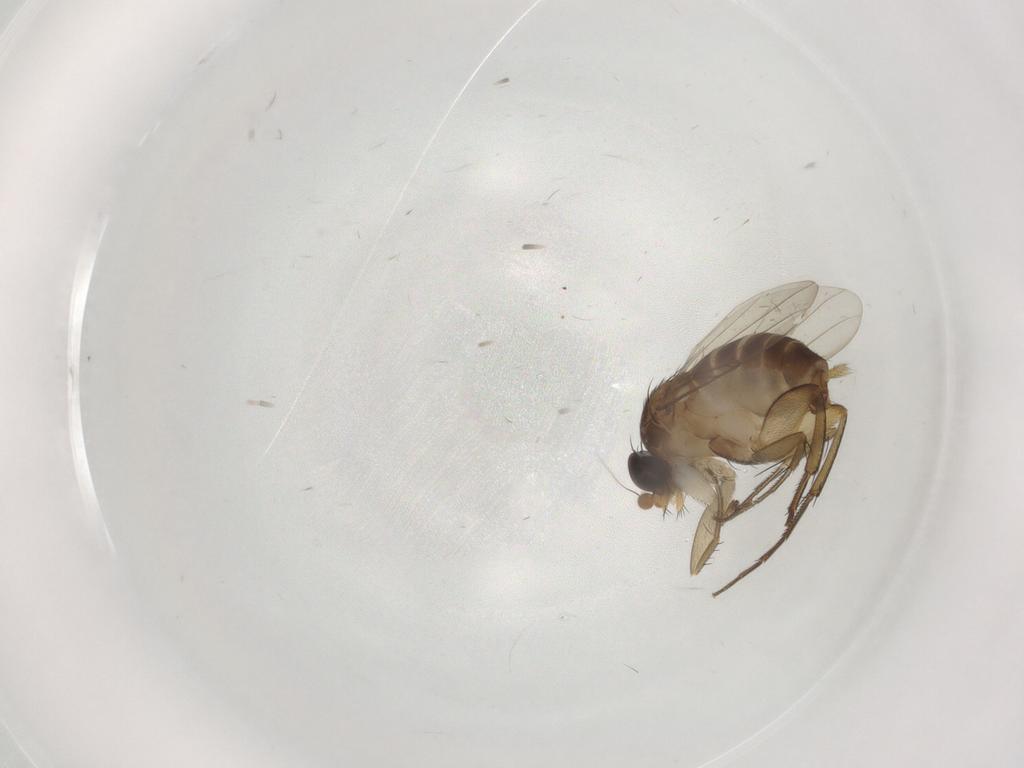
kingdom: Animalia
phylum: Arthropoda
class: Insecta
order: Diptera
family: Phoridae
